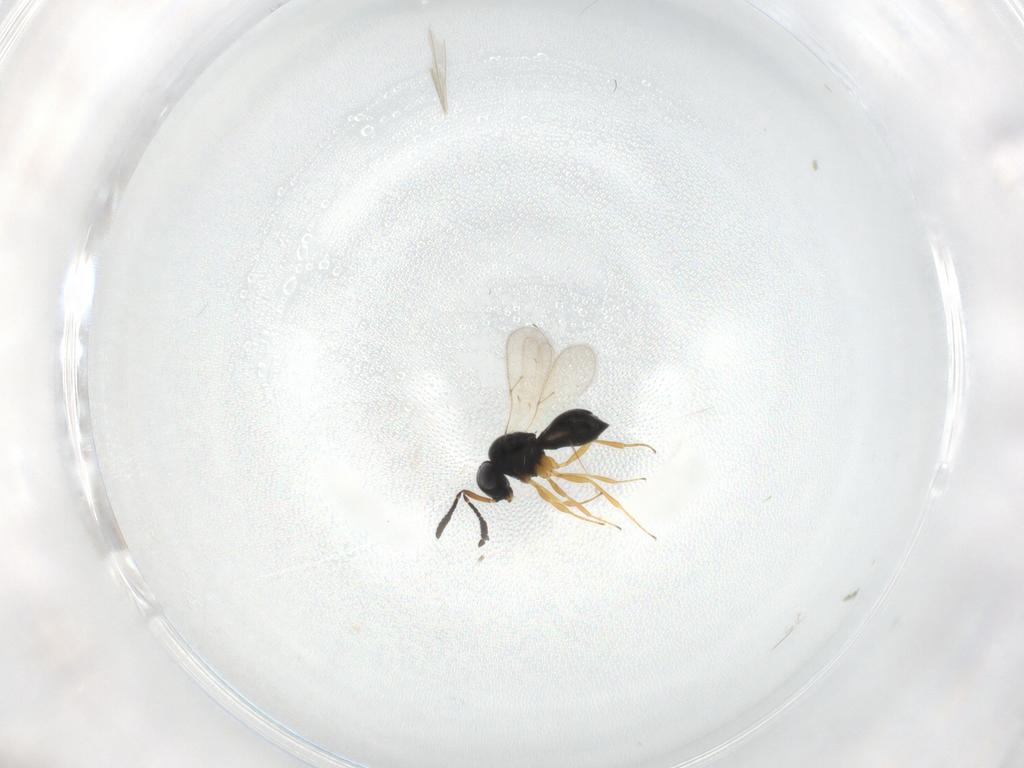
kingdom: Animalia
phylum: Arthropoda
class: Insecta
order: Hymenoptera
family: Scelionidae
